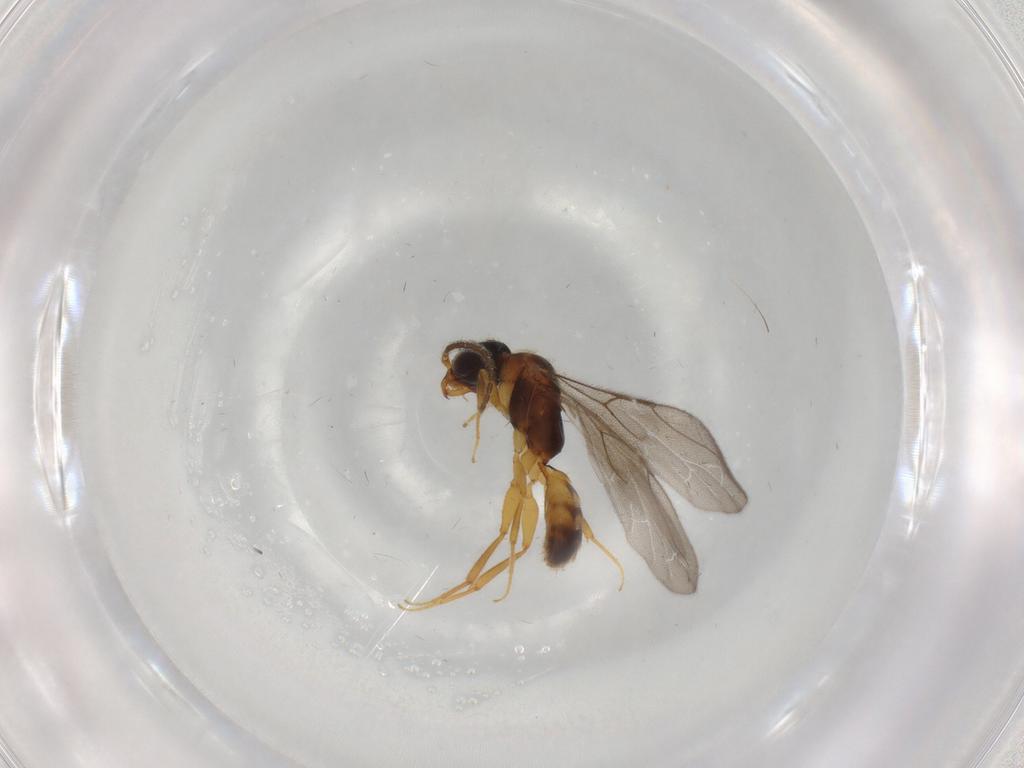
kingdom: Animalia
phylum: Arthropoda
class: Insecta
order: Hymenoptera
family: Bethylidae
